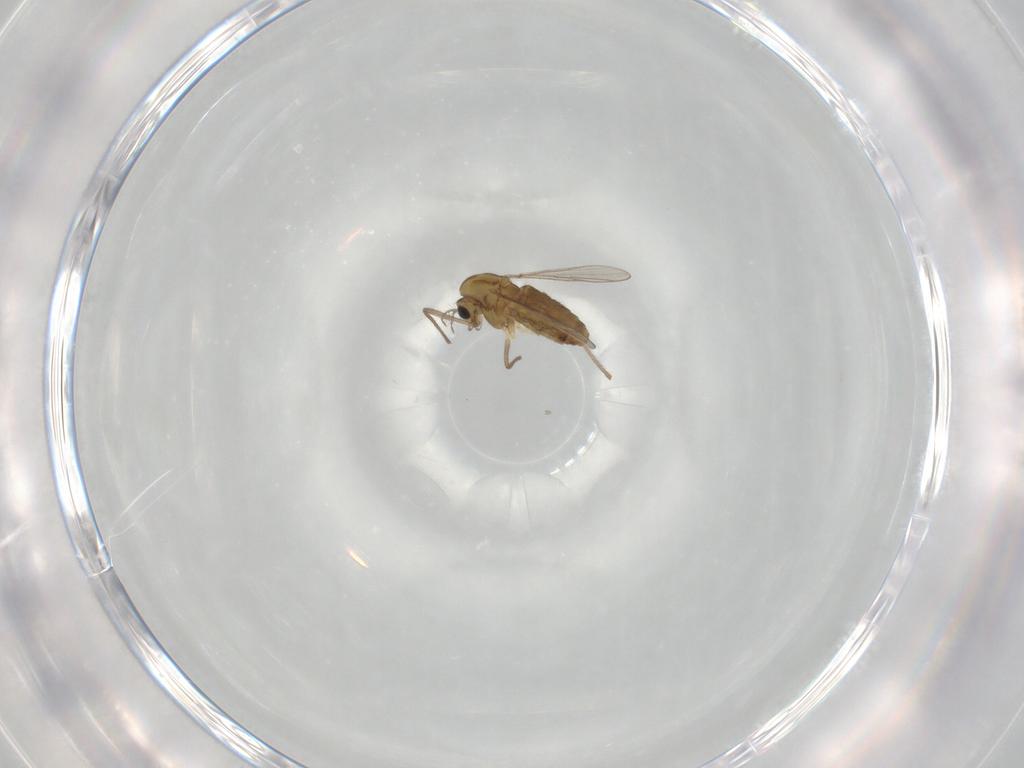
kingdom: Animalia
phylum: Arthropoda
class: Insecta
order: Diptera
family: Chironomidae
